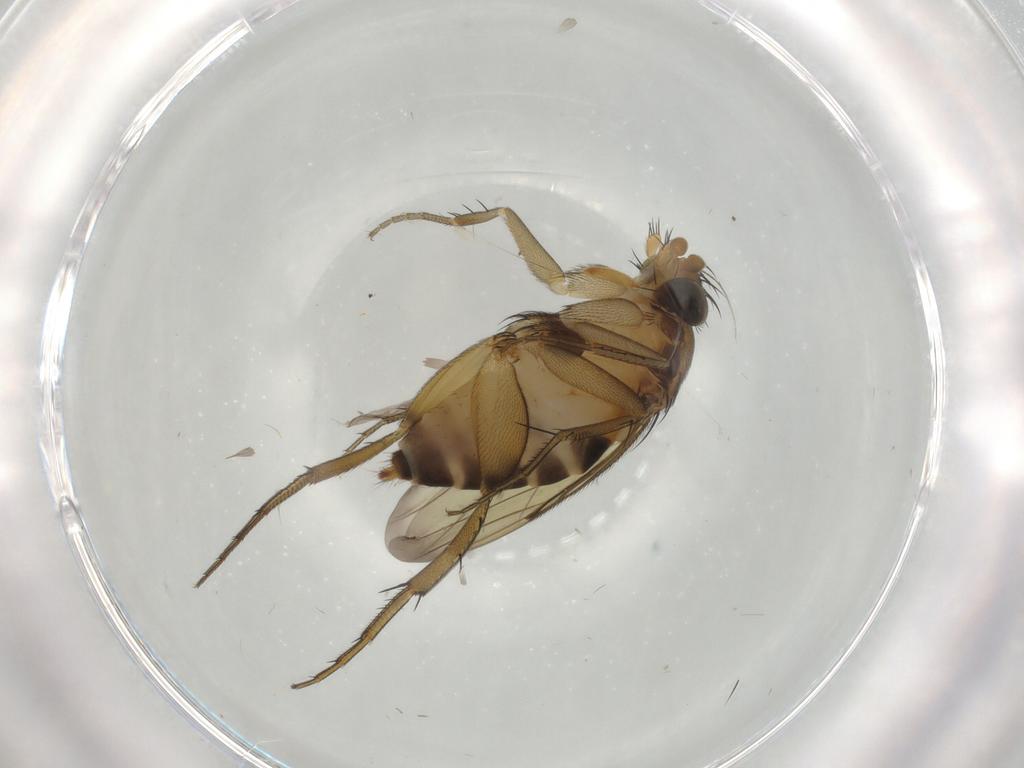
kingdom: Animalia
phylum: Arthropoda
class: Insecta
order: Diptera
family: Phoridae
